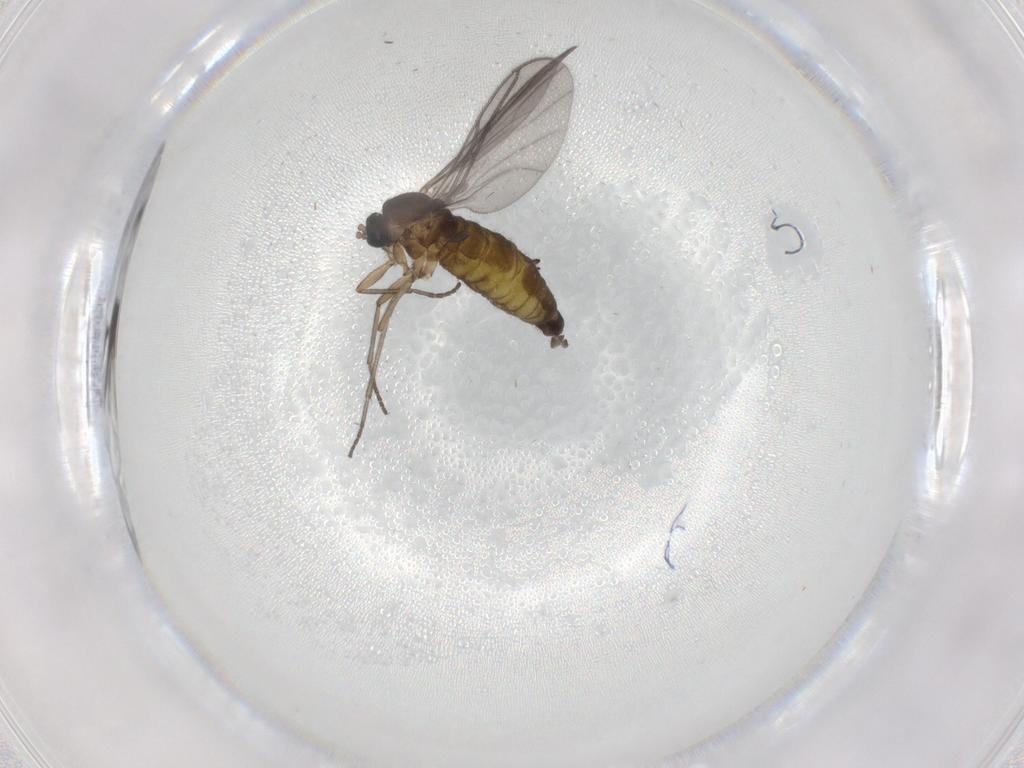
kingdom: Animalia
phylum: Arthropoda
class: Insecta
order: Diptera
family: Sciaridae
